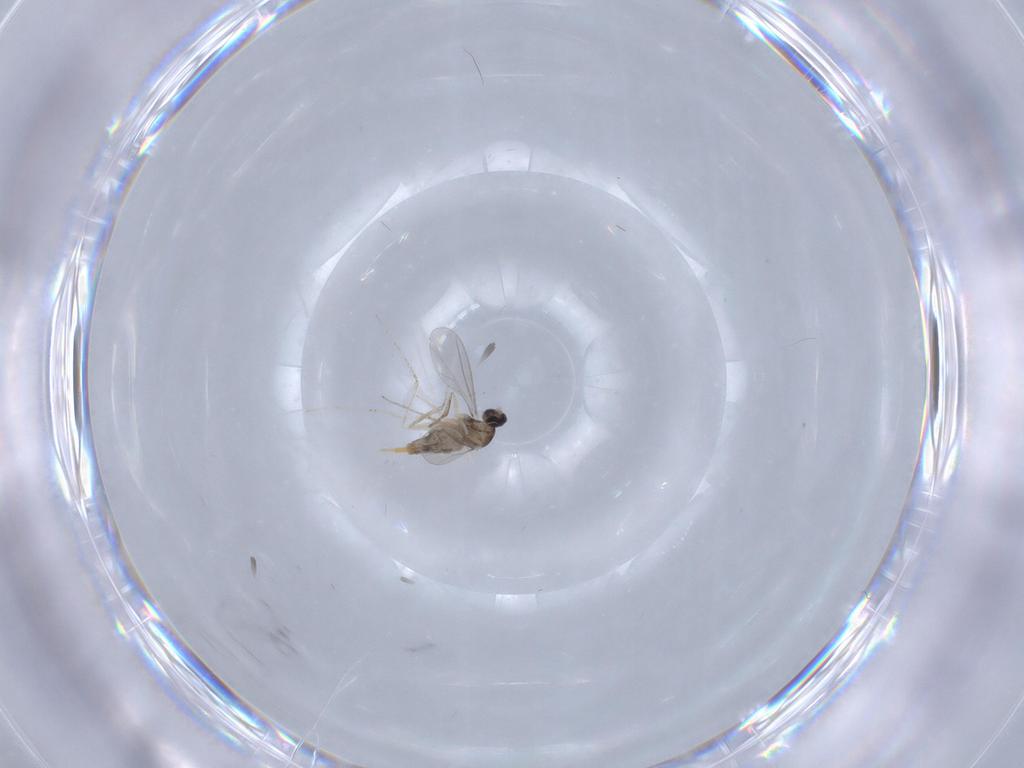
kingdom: Animalia
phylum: Arthropoda
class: Insecta
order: Diptera
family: Cecidomyiidae
